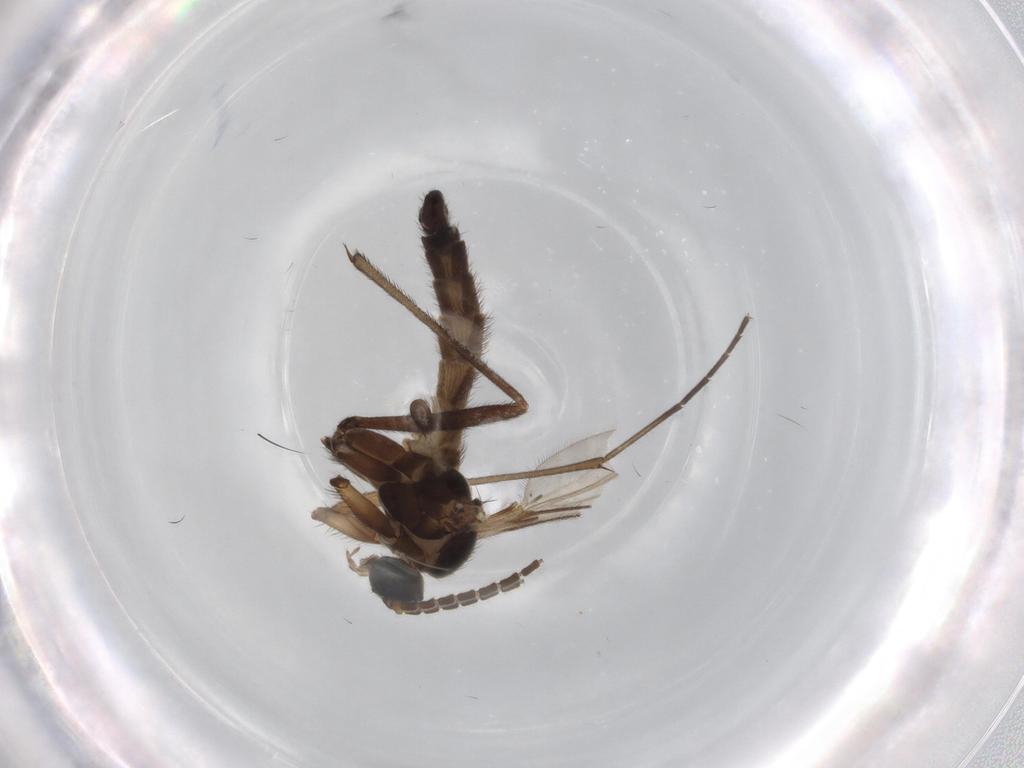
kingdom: Animalia
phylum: Arthropoda
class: Insecta
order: Diptera
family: Sciaridae
